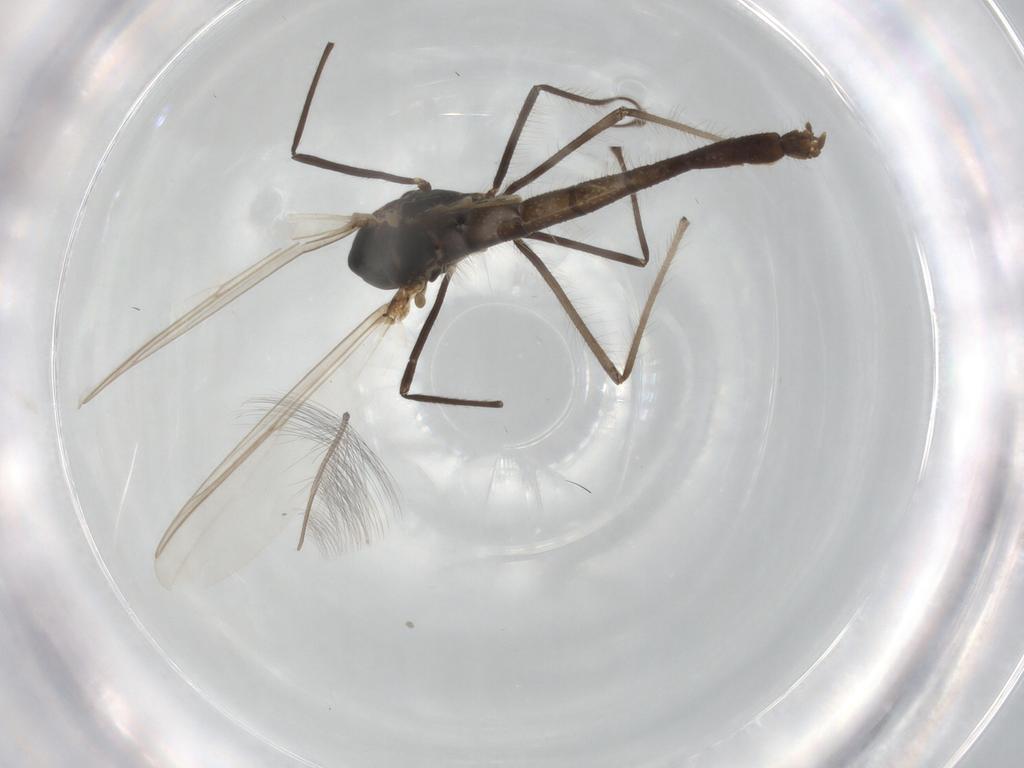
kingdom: Animalia
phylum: Arthropoda
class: Insecta
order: Diptera
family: Chironomidae
